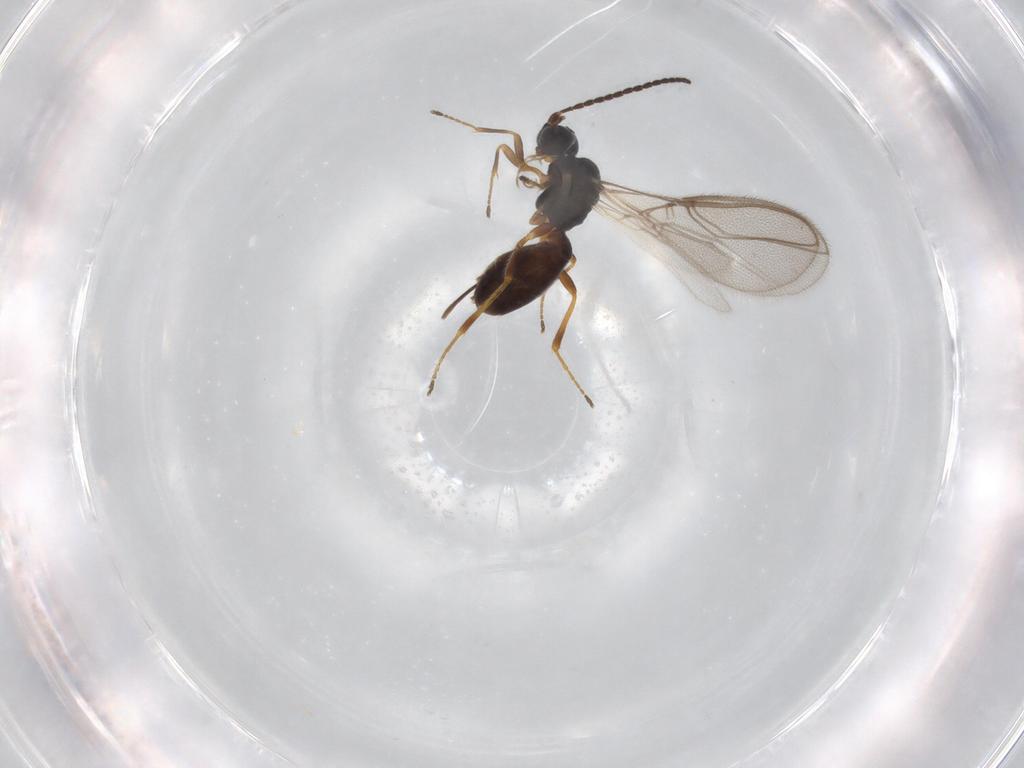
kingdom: Animalia
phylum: Arthropoda
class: Insecta
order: Hymenoptera
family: Braconidae
